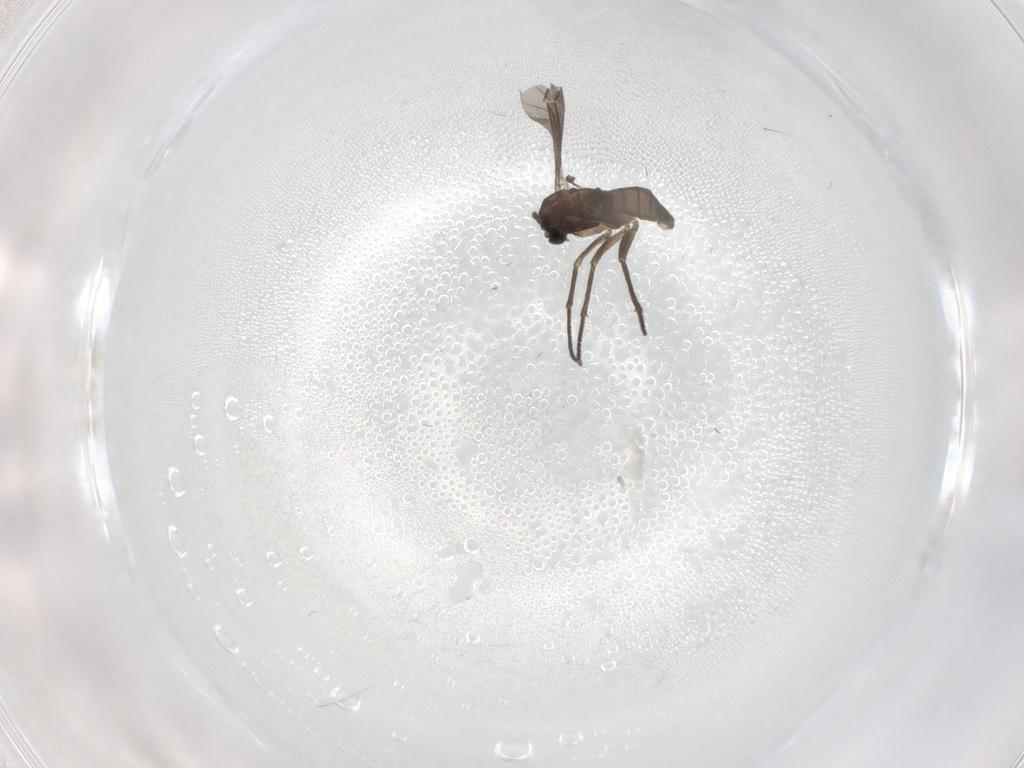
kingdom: Animalia
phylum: Arthropoda
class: Insecta
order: Diptera
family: Sciaridae
